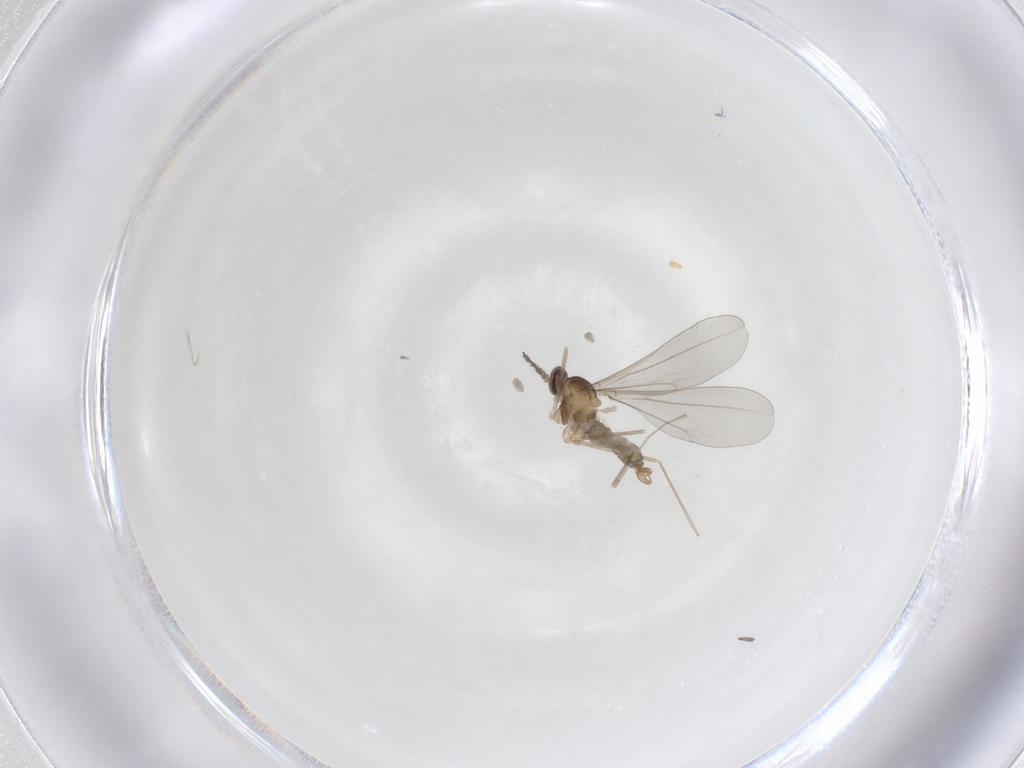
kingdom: Animalia
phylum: Arthropoda
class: Insecta
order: Diptera
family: Cecidomyiidae
